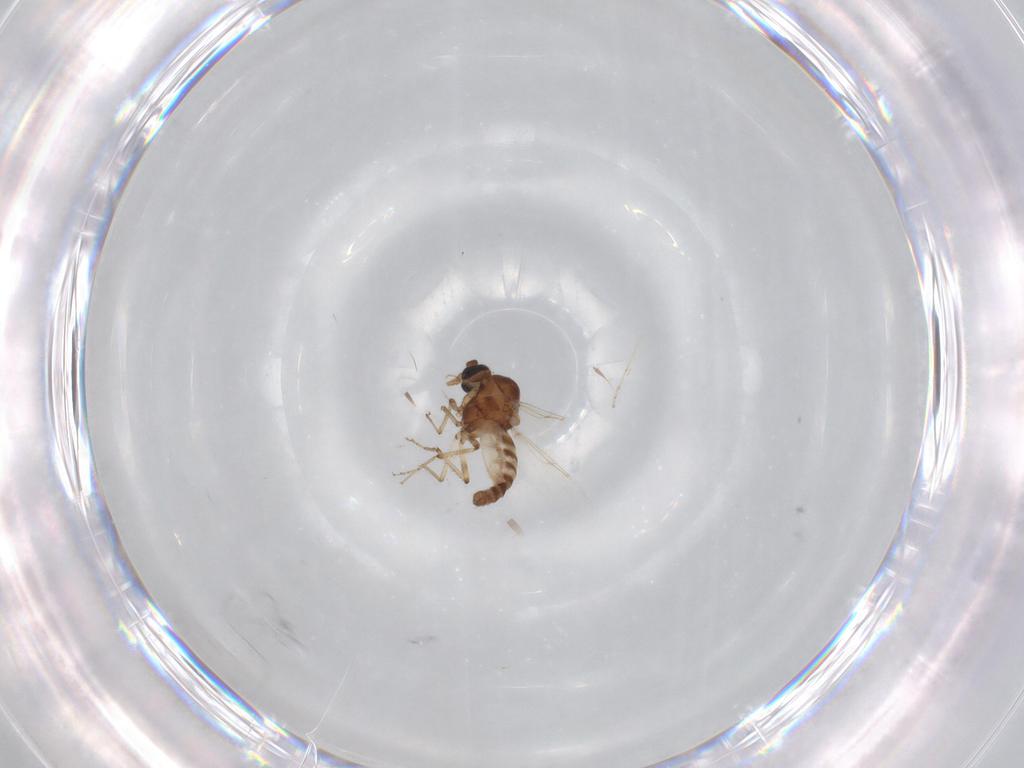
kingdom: Animalia
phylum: Arthropoda
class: Insecta
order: Diptera
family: Ceratopogonidae
